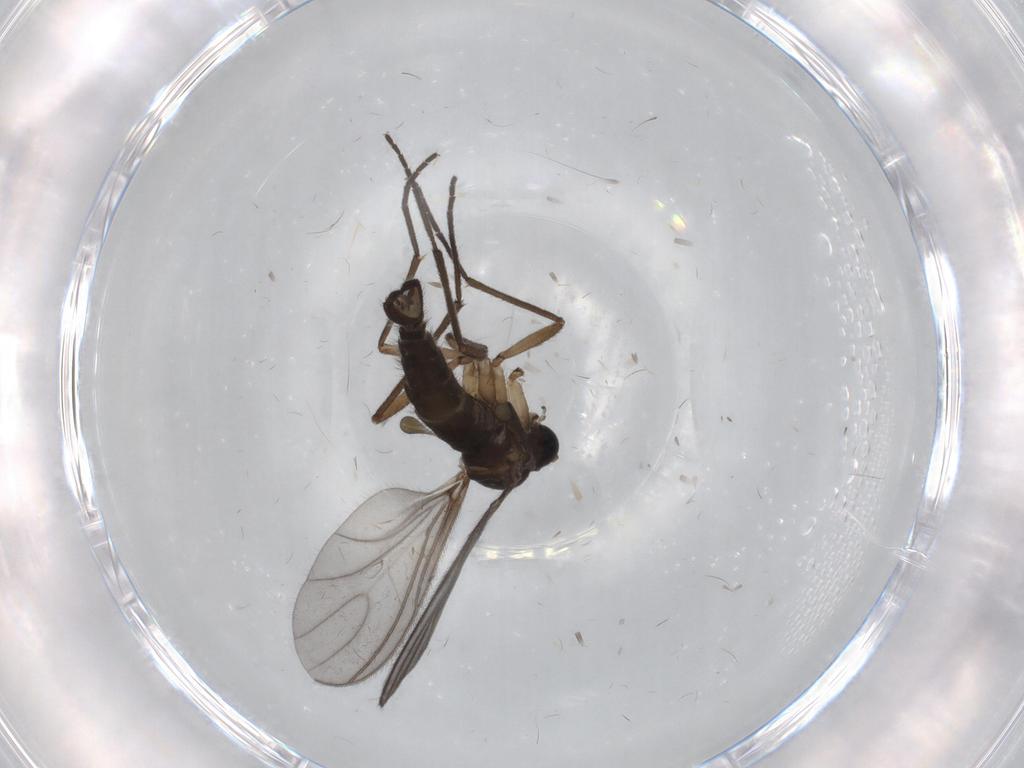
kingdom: Animalia
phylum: Arthropoda
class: Insecta
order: Diptera
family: Sciaridae
